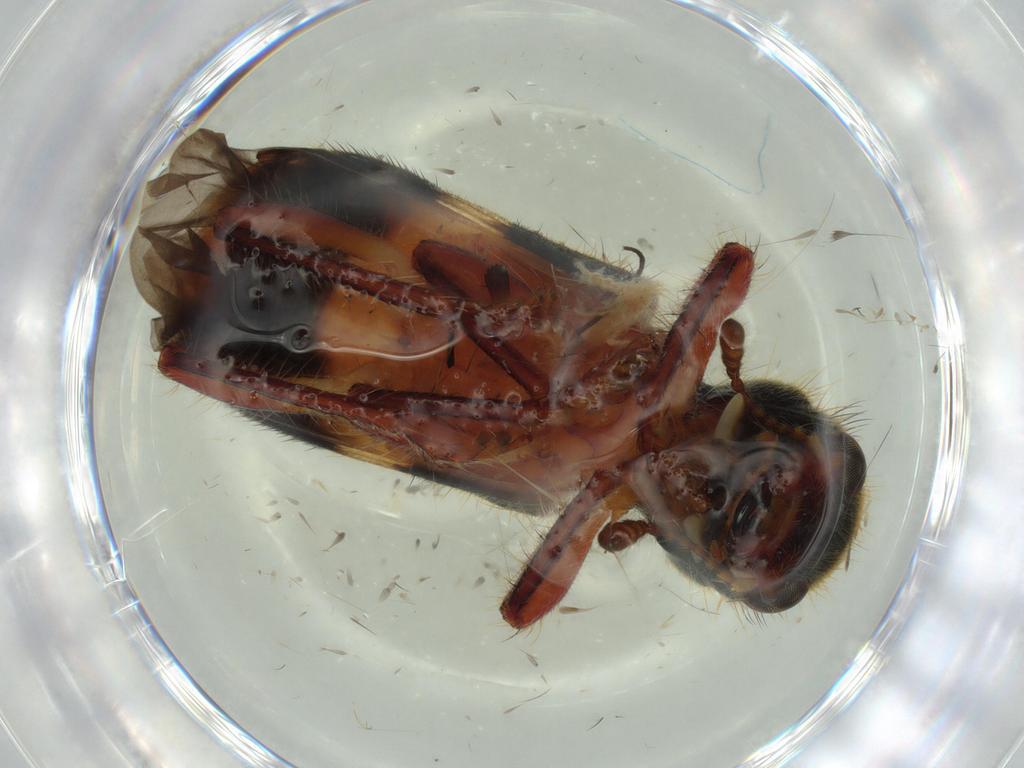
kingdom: Animalia
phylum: Arthropoda
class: Insecta
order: Coleoptera
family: Cleridae
